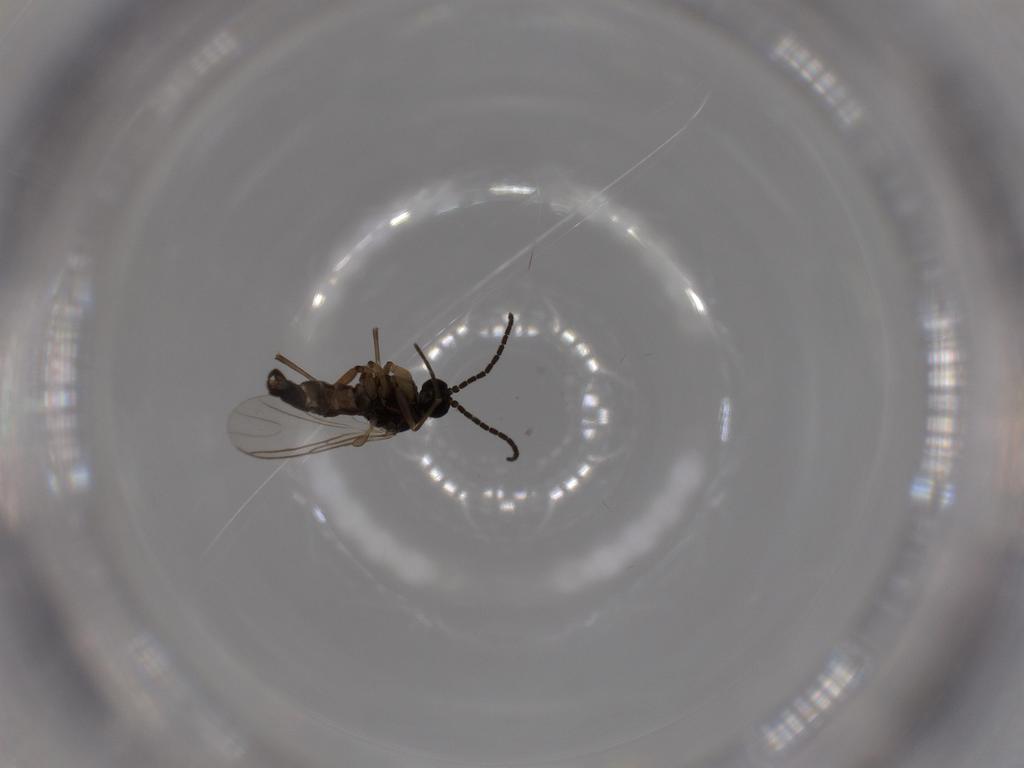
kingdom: Animalia
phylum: Arthropoda
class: Insecta
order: Diptera
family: Sciaridae
